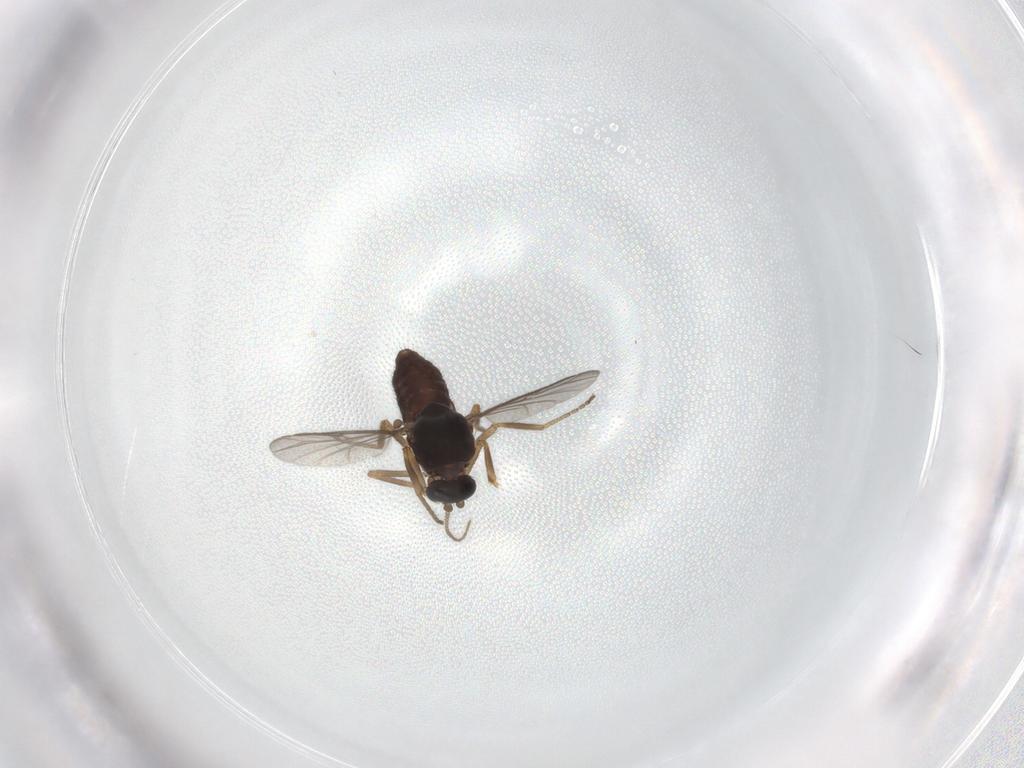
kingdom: Animalia
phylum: Arthropoda
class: Insecta
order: Diptera
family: Ceratopogonidae
